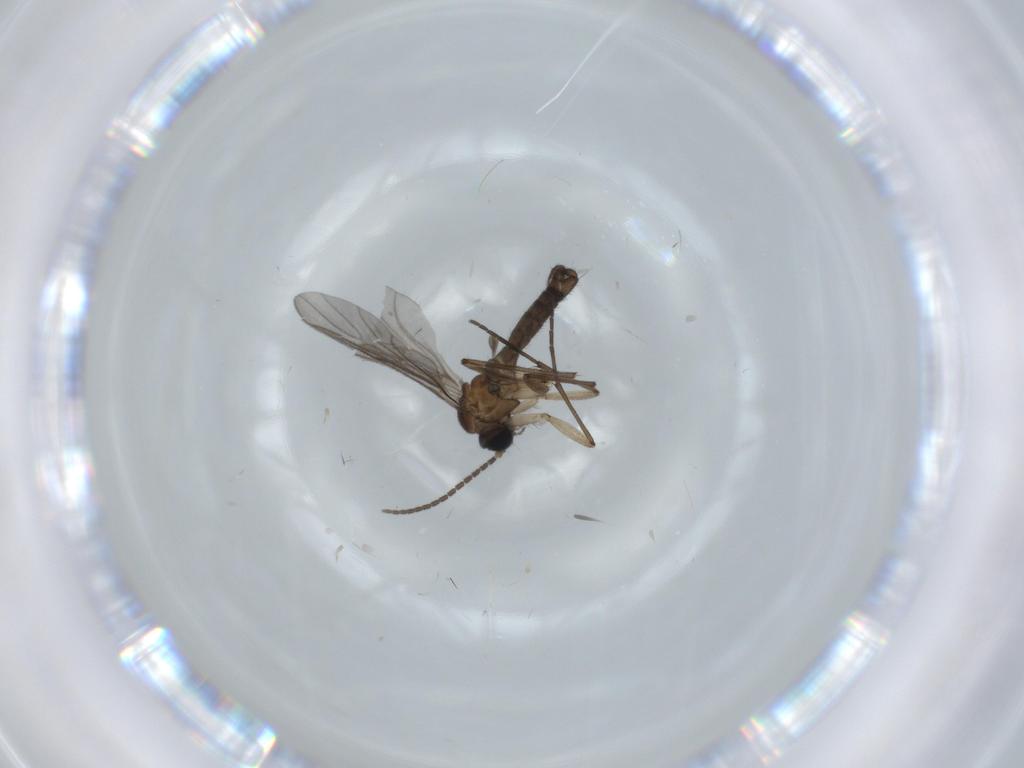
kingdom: Animalia
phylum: Arthropoda
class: Insecta
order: Diptera
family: Sciaridae
